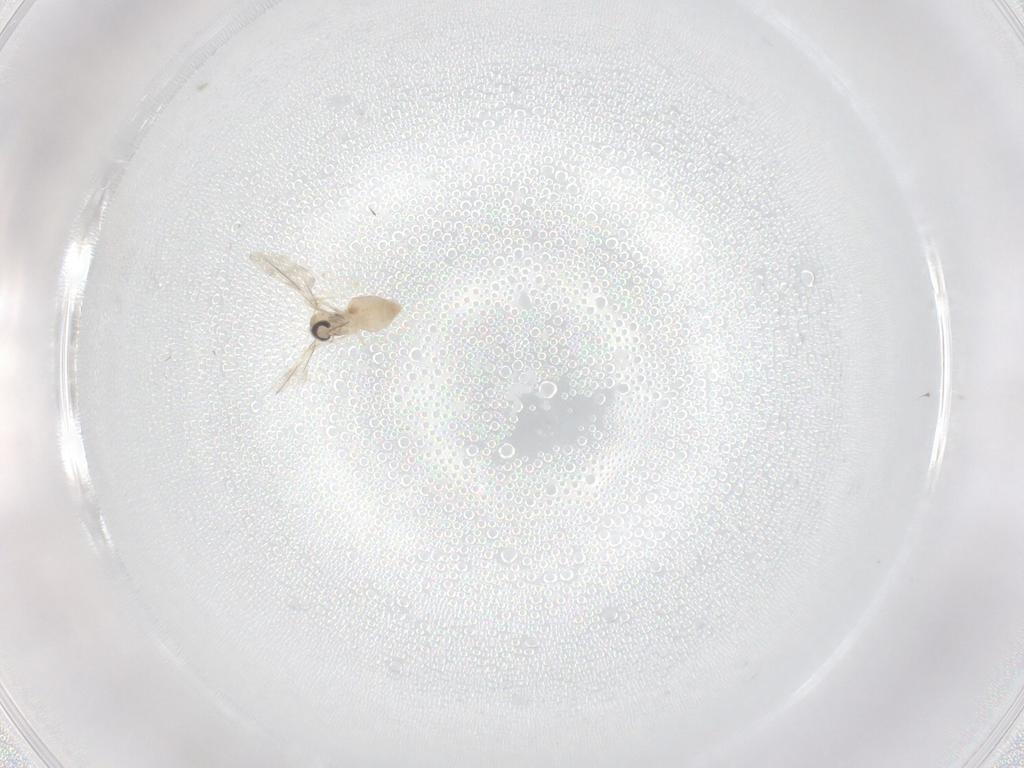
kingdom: Animalia
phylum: Arthropoda
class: Insecta
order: Diptera
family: Cecidomyiidae
